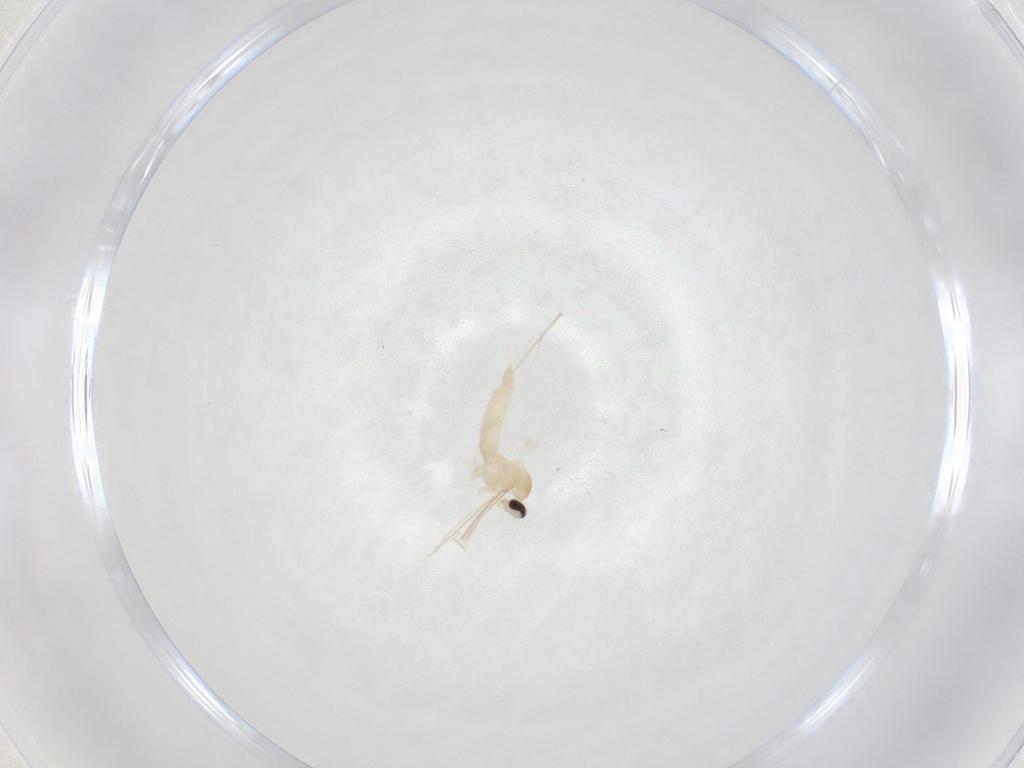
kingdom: Animalia
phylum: Arthropoda
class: Insecta
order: Diptera
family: Cecidomyiidae
